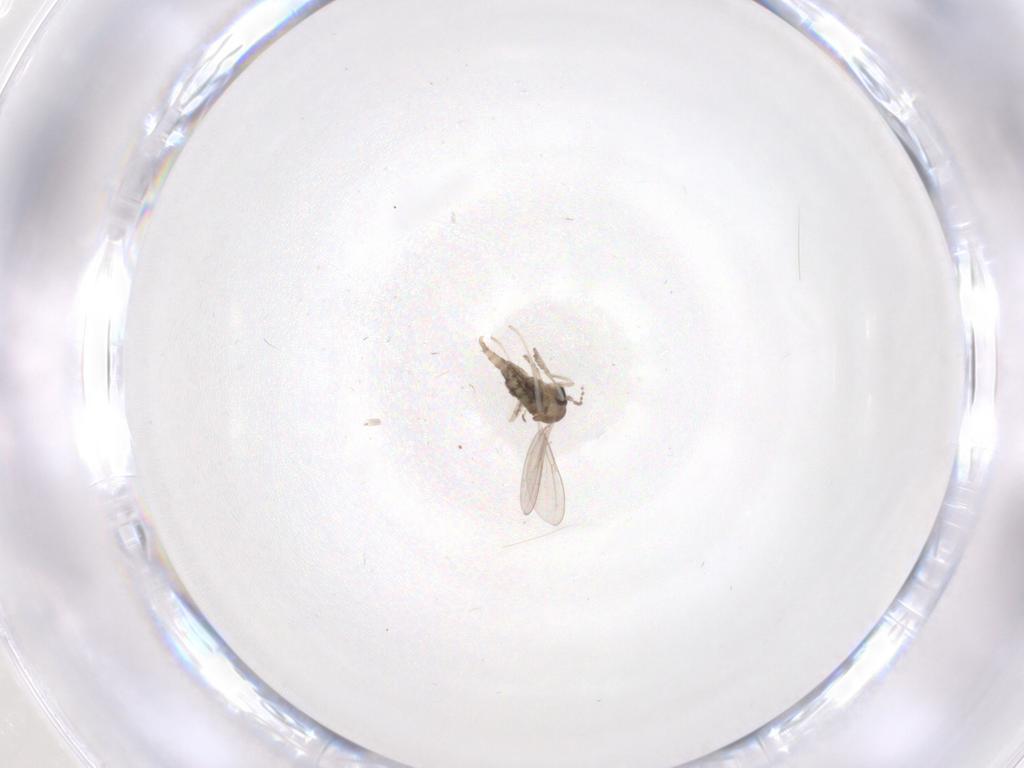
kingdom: Animalia
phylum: Arthropoda
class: Insecta
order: Diptera
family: Cecidomyiidae
